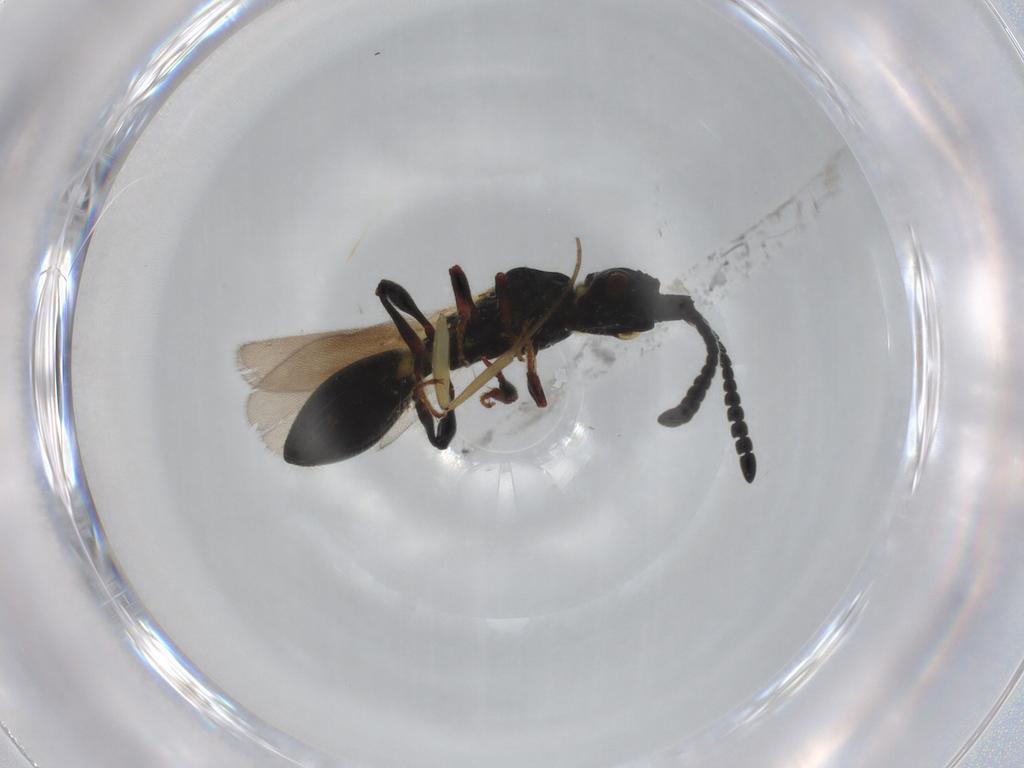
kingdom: Animalia
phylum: Arthropoda
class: Insecta
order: Hymenoptera
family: Diapriidae
